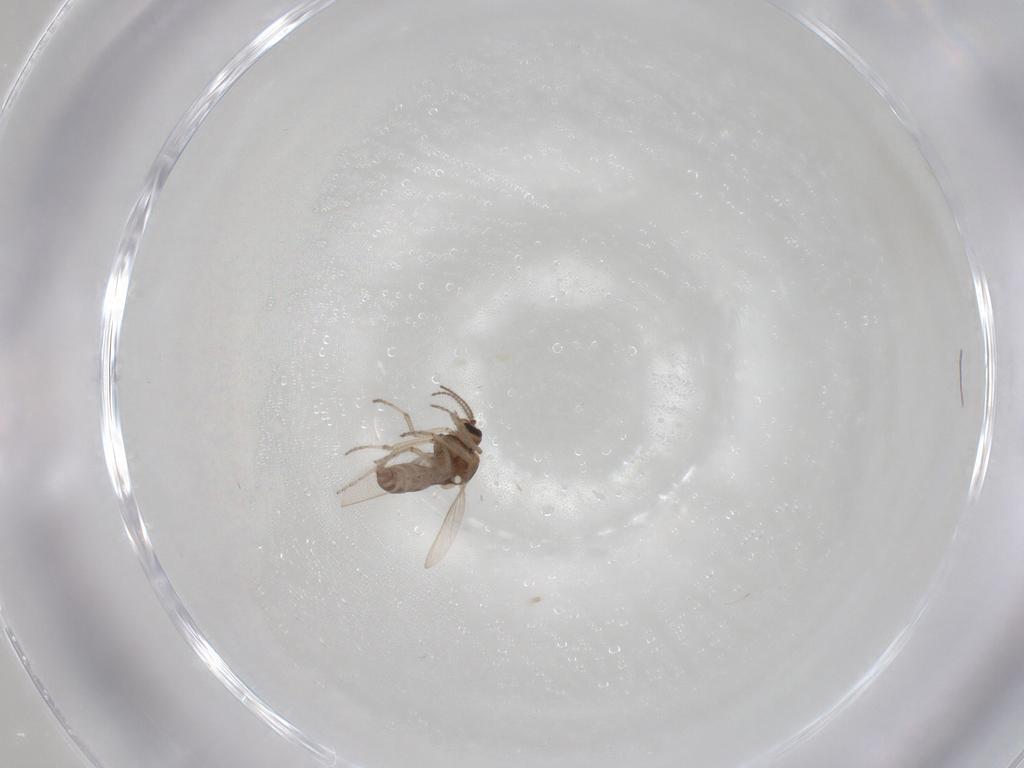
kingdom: Animalia
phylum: Arthropoda
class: Insecta
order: Diptera
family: Ceratopogonidae
